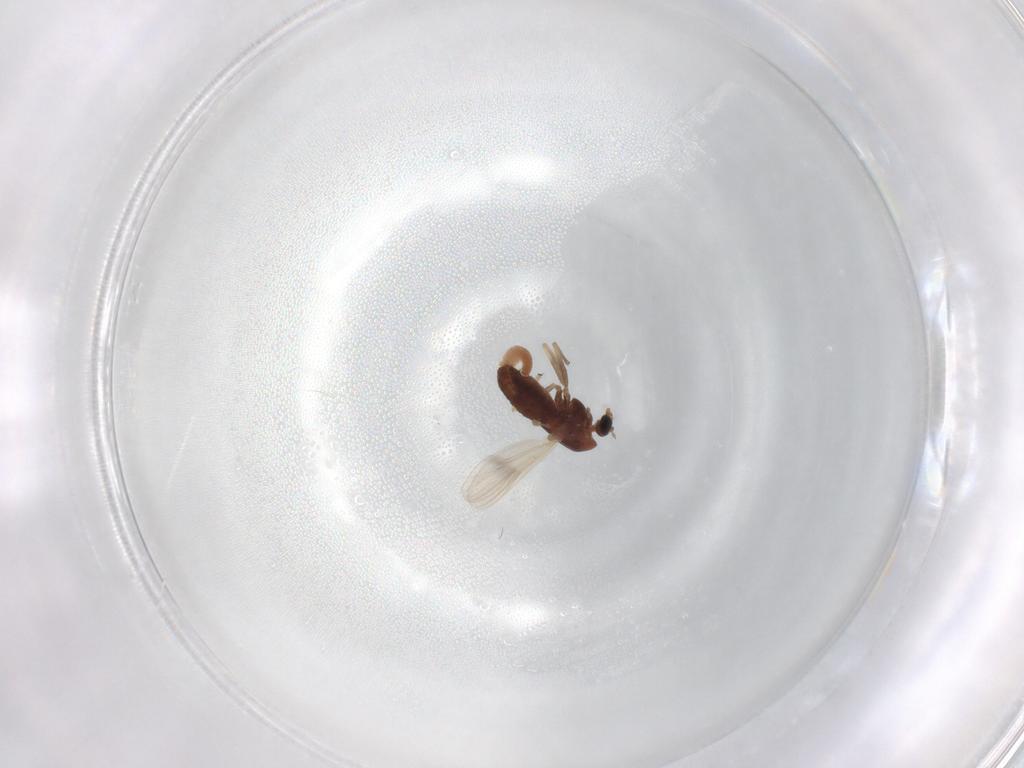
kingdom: Animalia
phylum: Arthropoda
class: Insecta
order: Diptera
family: Chironomidae
